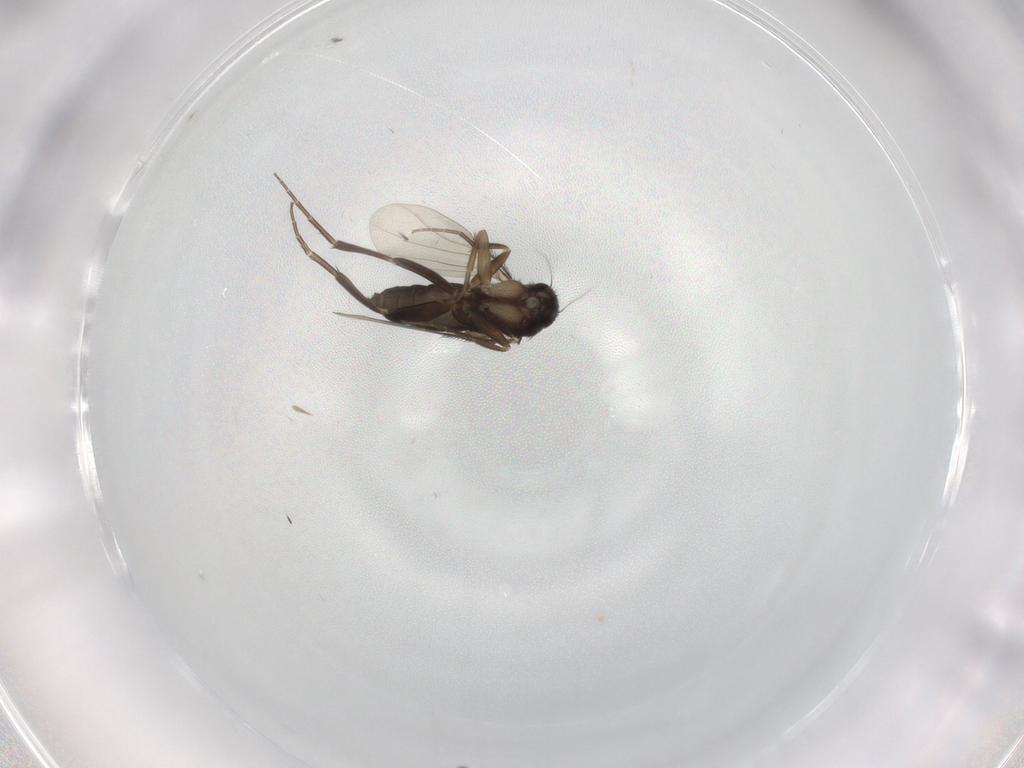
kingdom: Animalia
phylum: Arthropoda
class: Insecta
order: Diptera
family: Phoridae
